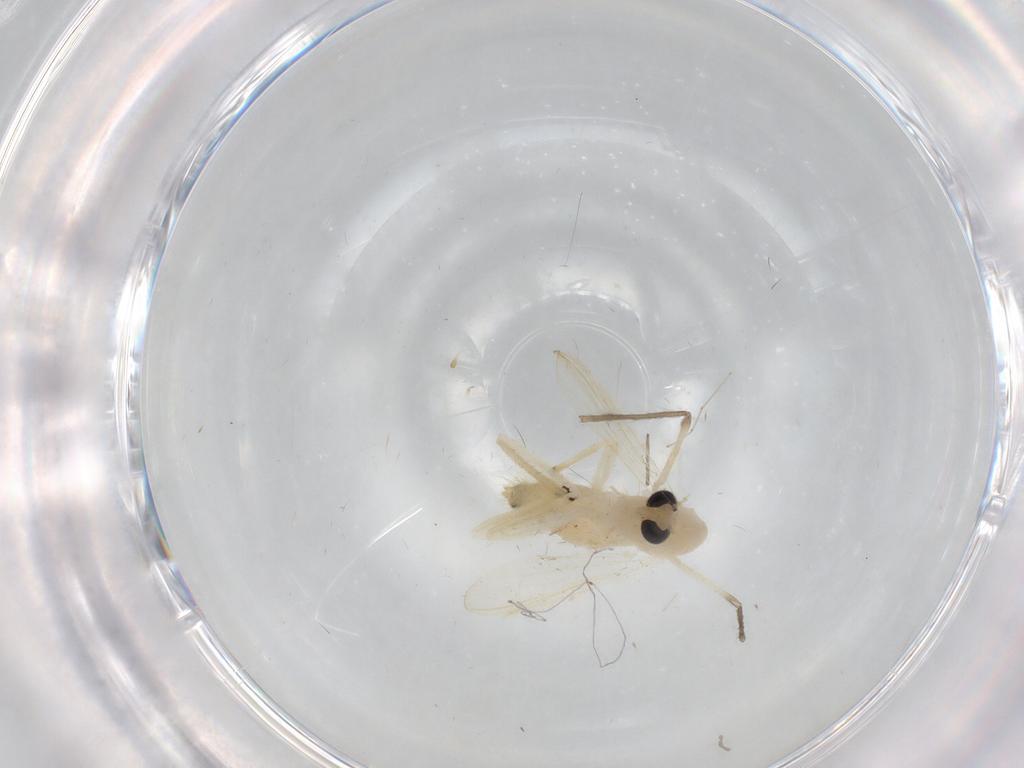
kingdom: Animalia
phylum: Arthropoda
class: Insecta
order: Diptera
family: Chironomidae
